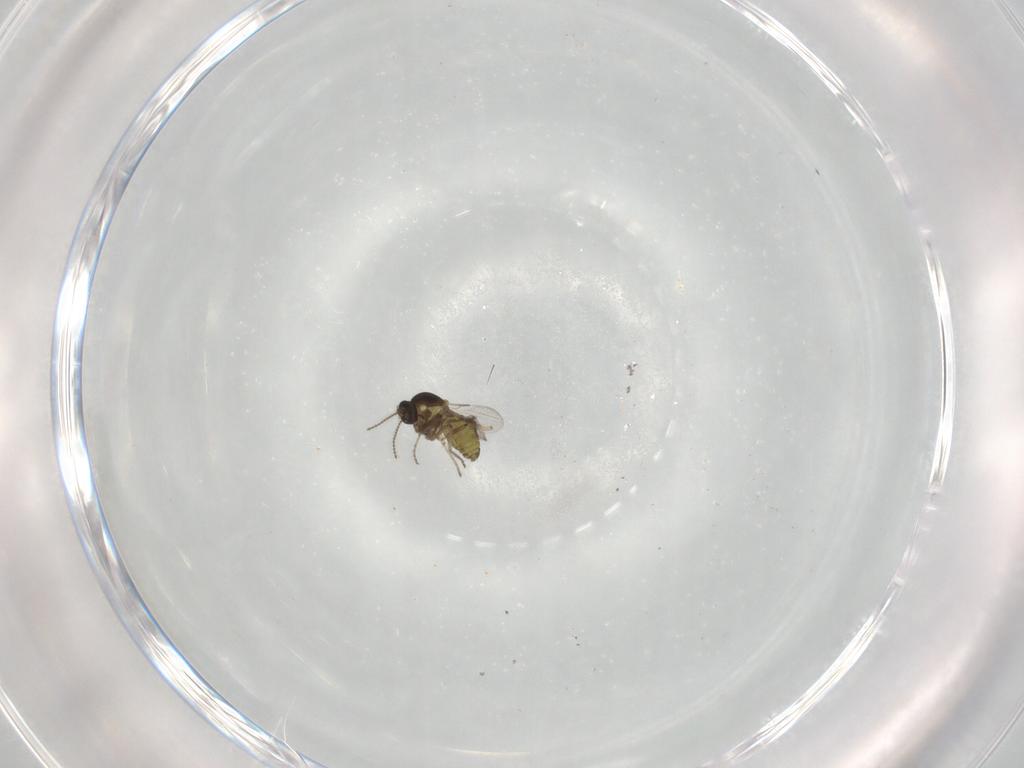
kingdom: Animalia
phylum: Arthropoda
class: Insecta
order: Diptera
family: Ceratopogonidae
